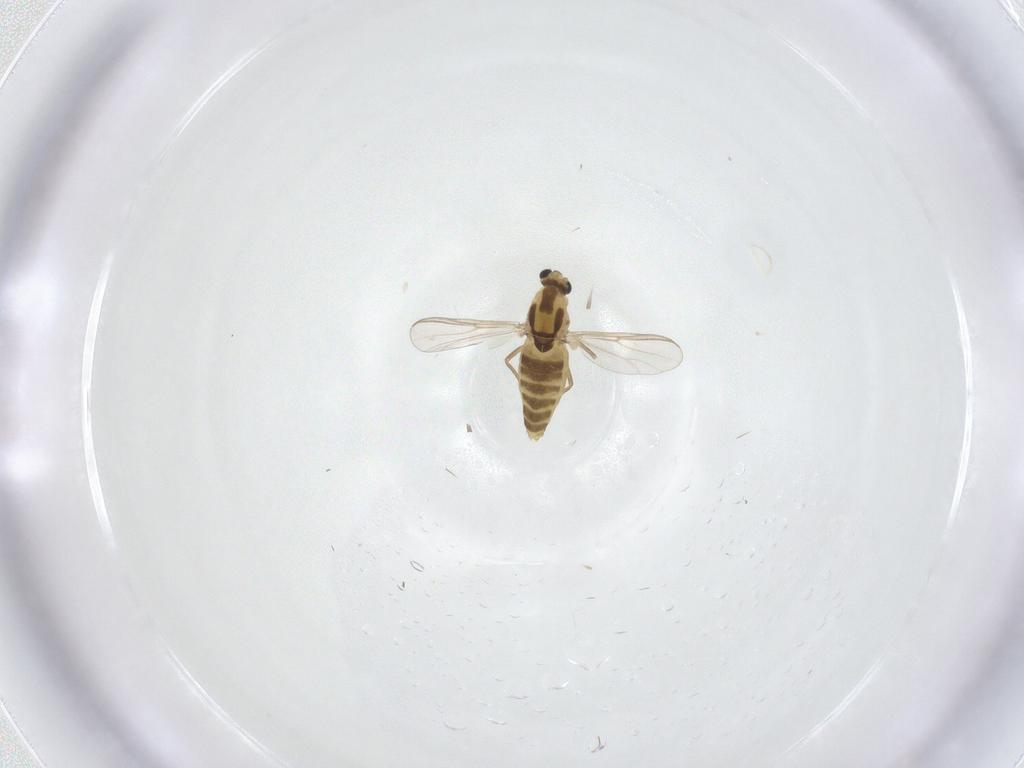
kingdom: Animalia
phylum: Arthropoda
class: Insecta
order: Diptera
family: Chironomidae
